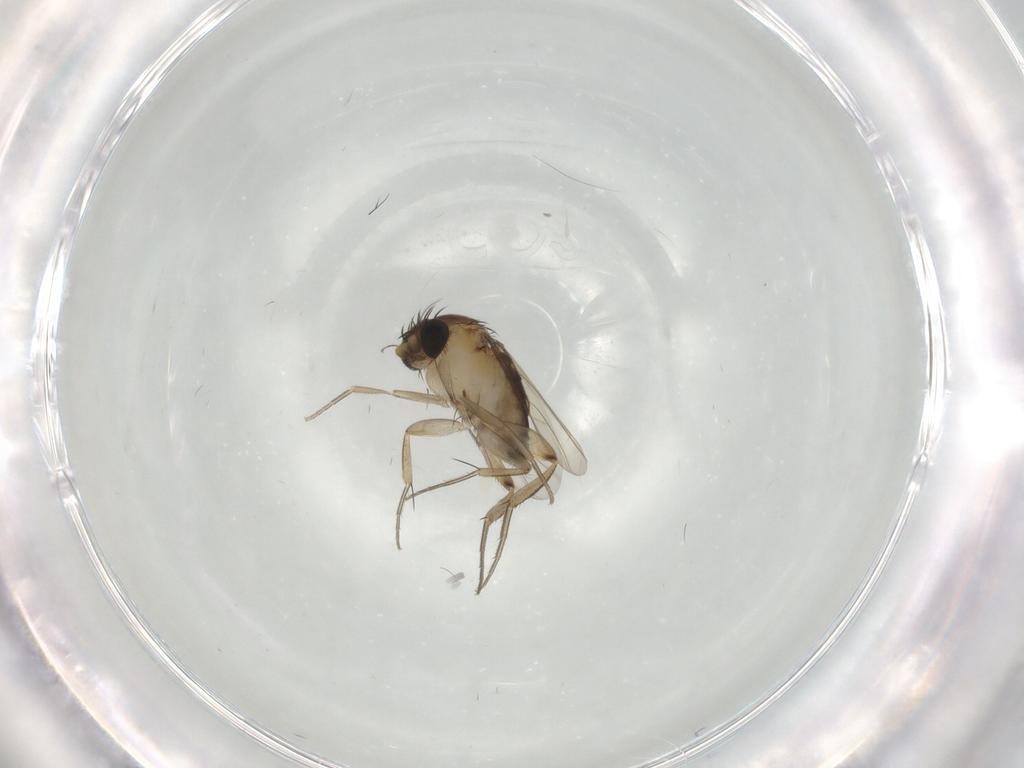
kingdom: Animalia
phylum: Arthropoda
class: Insecta
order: Diptera
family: Phoridae
